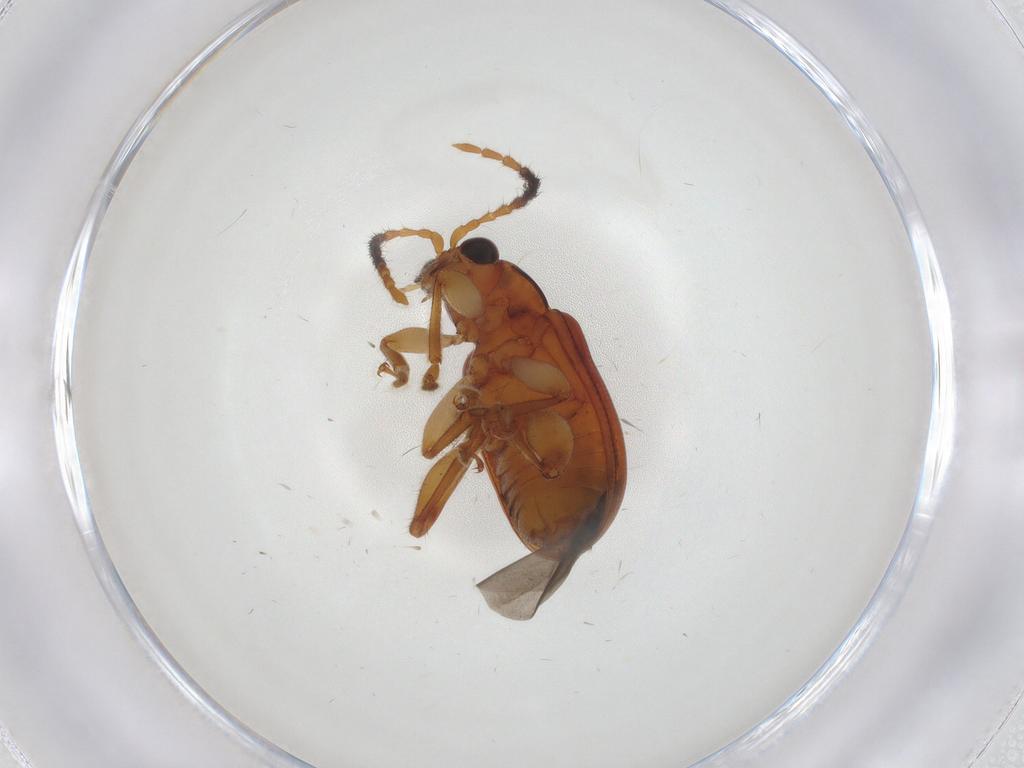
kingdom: Animalia
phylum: Arthropoda
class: Insecta
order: Coleoptera
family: Chrysomelidae
